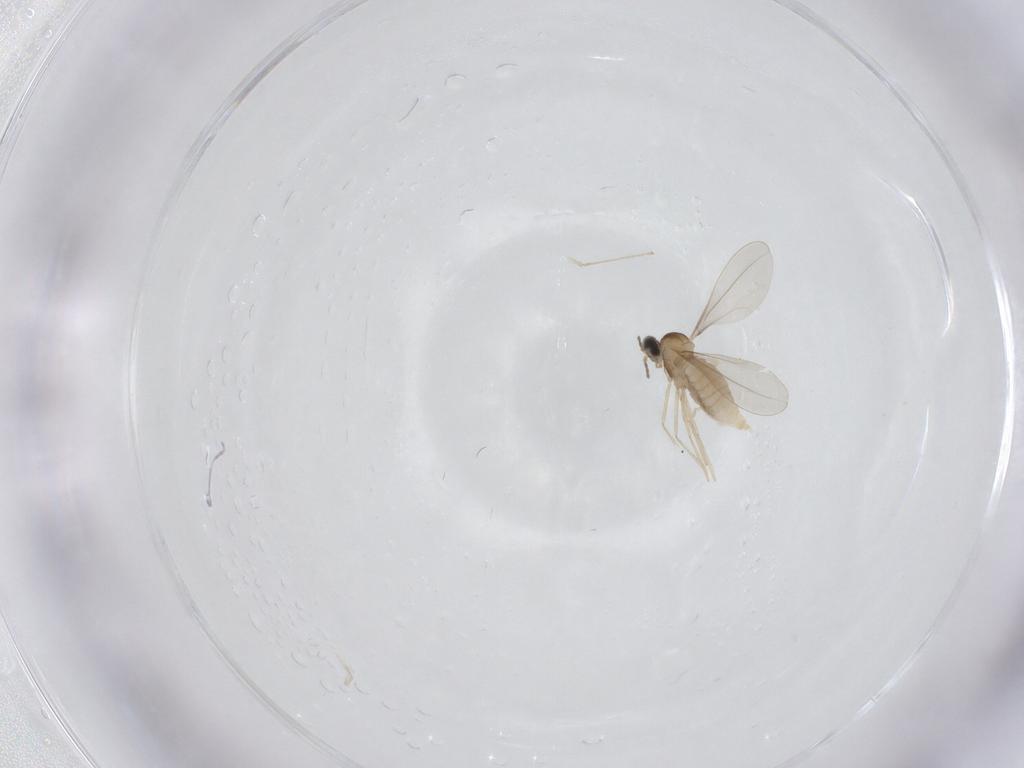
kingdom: Animalia
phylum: Arthropoda
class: Insecta
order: Diptera
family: Cecidomyiidae
